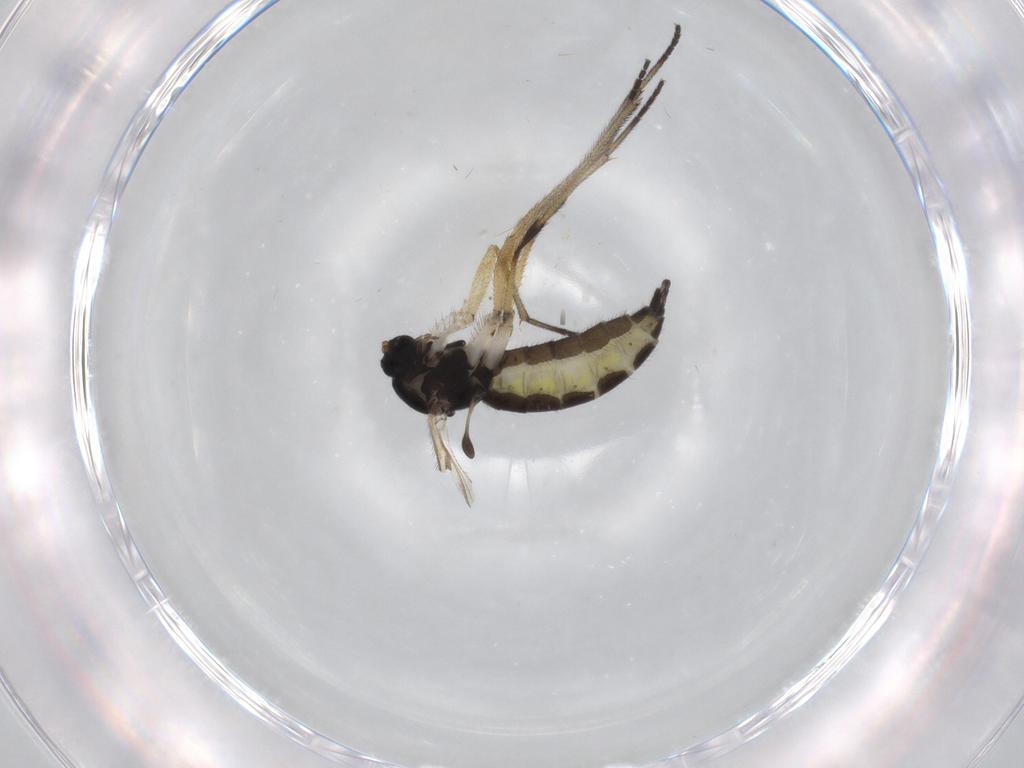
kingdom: Animalia
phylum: Arthropoda
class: Insecta
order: Diptera
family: Sciaridae
